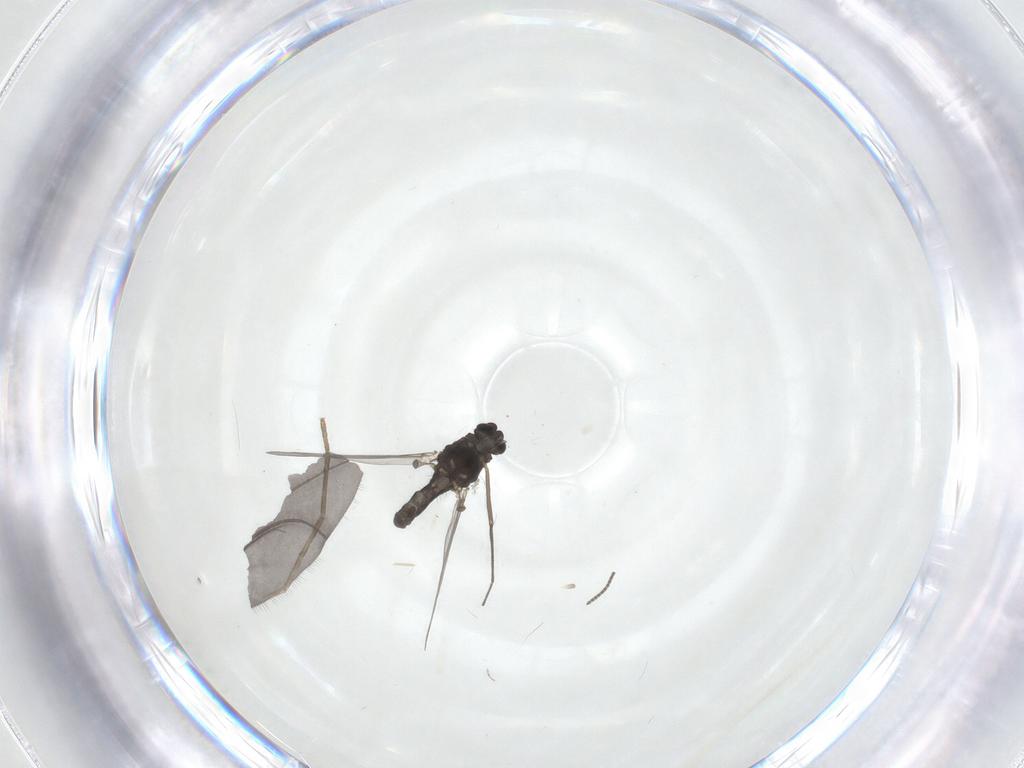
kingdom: Animalia
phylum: Arthropoda
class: Insecta
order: Diptera
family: Chironomidae
